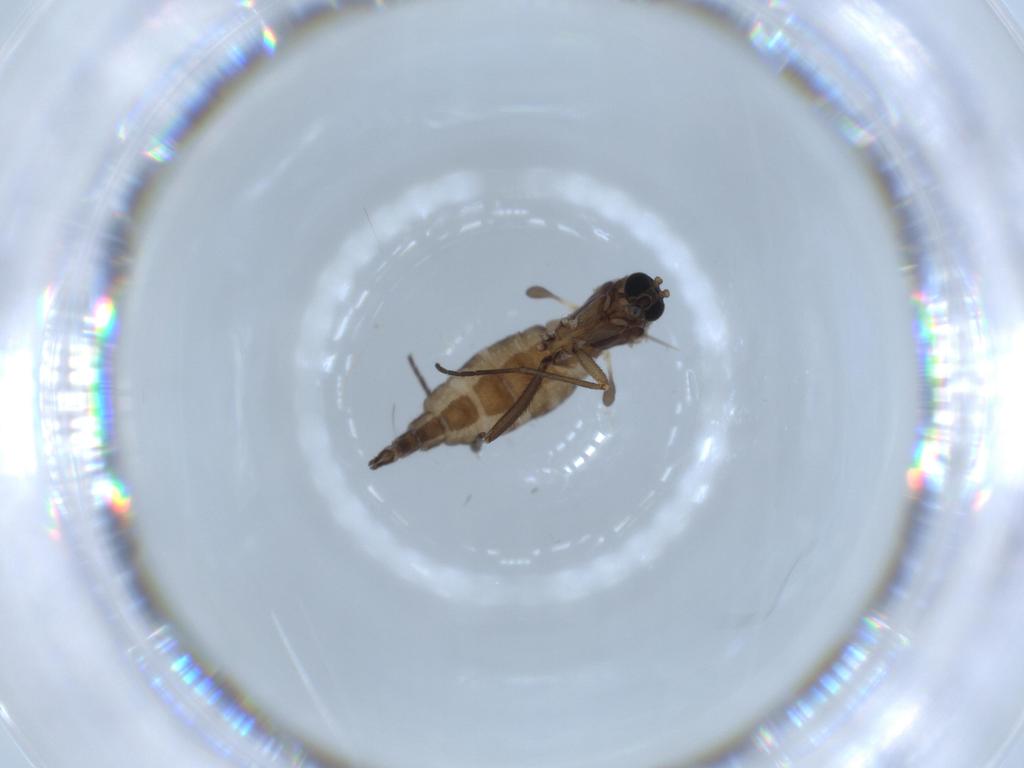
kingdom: Animalia
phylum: Arthropoda
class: Insecta
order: Diptera
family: Sciaridae
